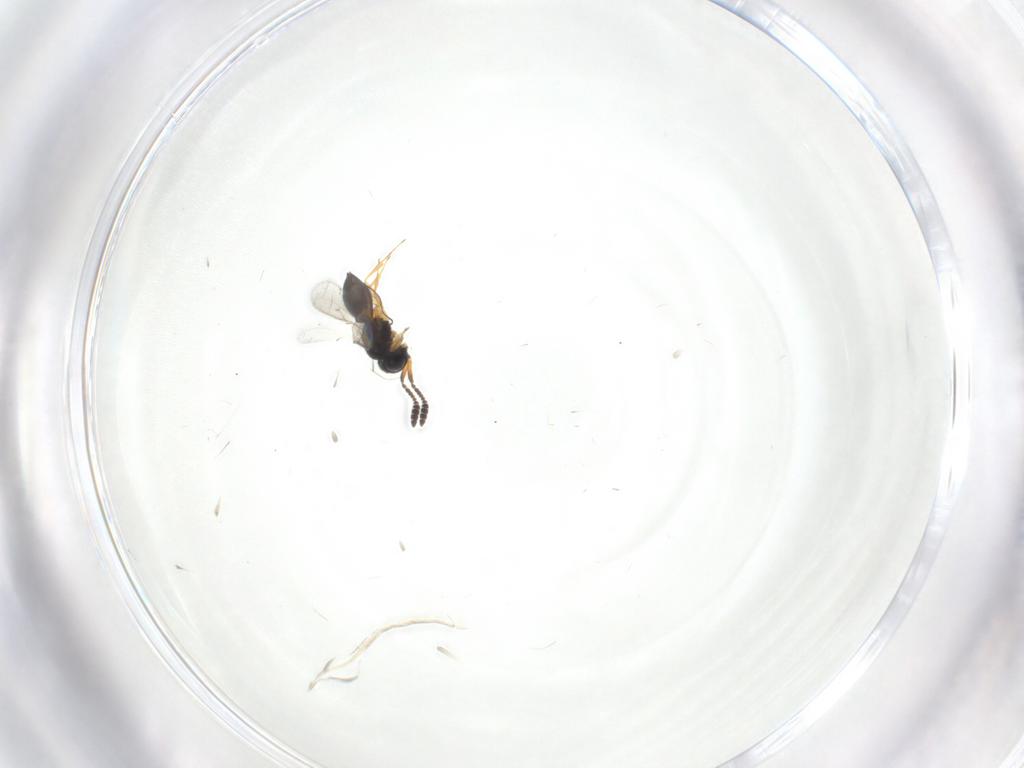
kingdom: Animalia
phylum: Arthropoda
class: Insecta
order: Hymenoptera
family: Scelionidae
